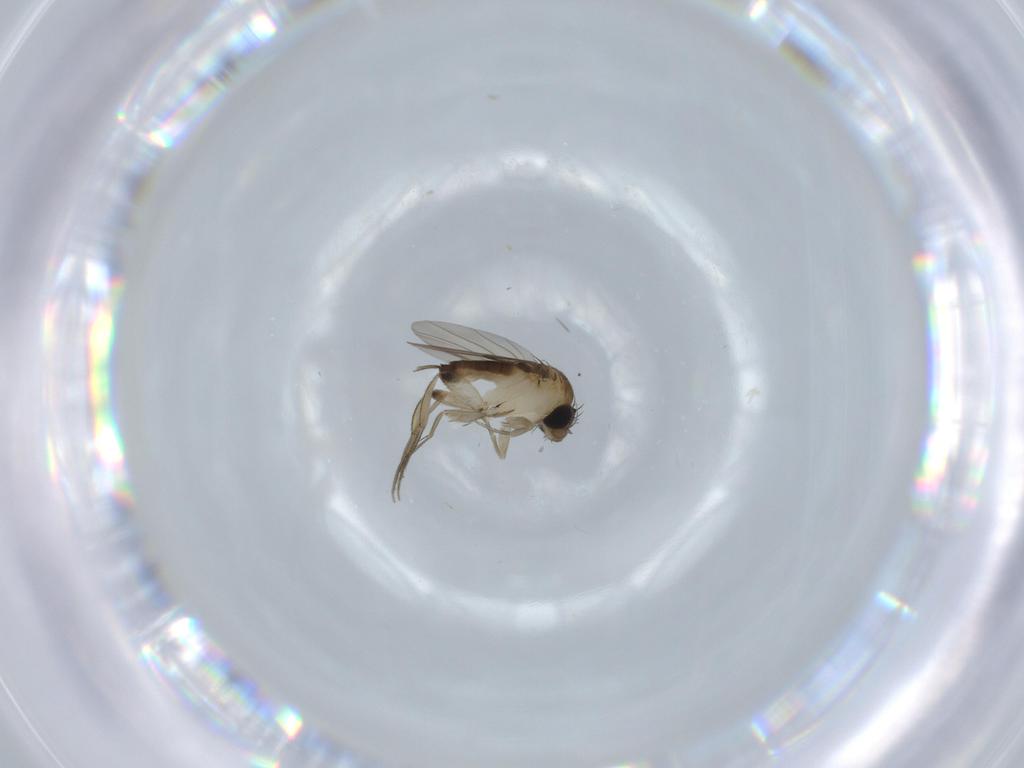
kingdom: Animalia
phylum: Arthropoda
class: Insecta
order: Diptera
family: Phoridae
